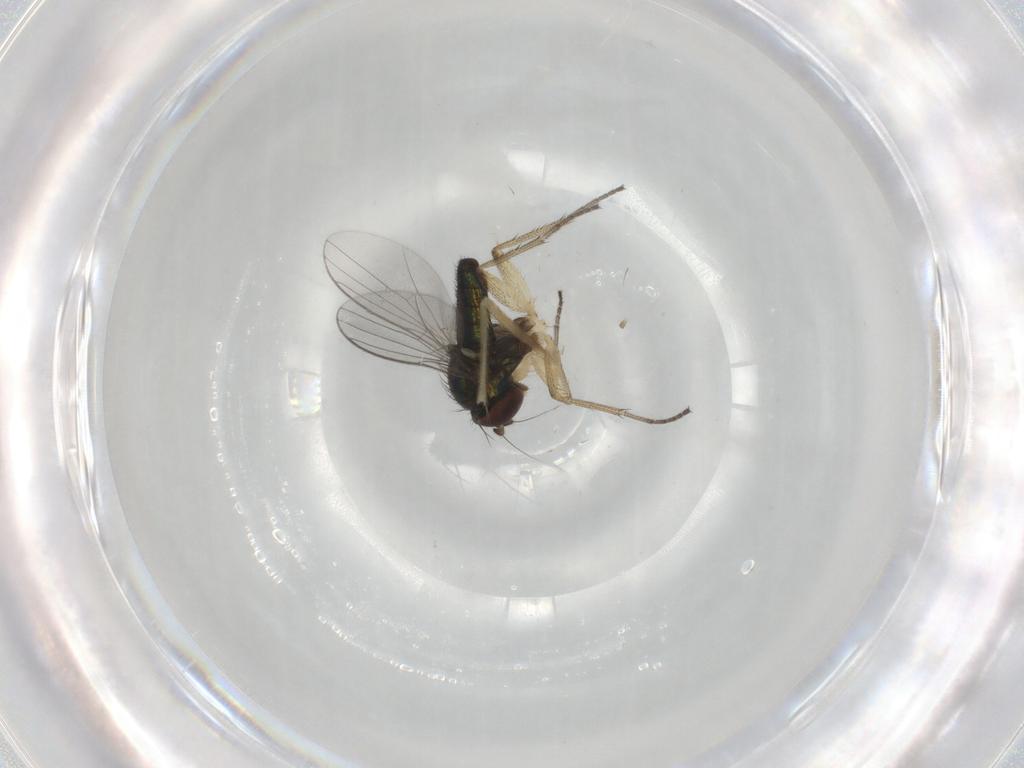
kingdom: Animalia
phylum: Arthropoda
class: Insecta
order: Diptera
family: Dolichopodidae
